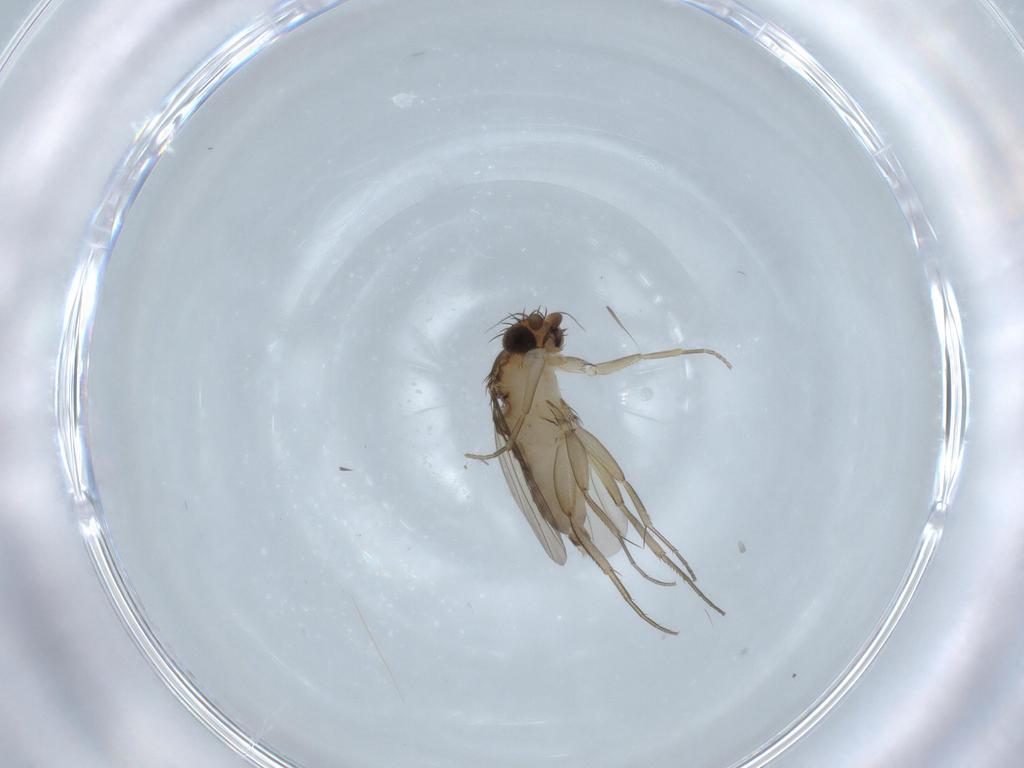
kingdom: Animalia
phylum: Arthropoda
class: Insecta
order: Diptera
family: Phoridae
